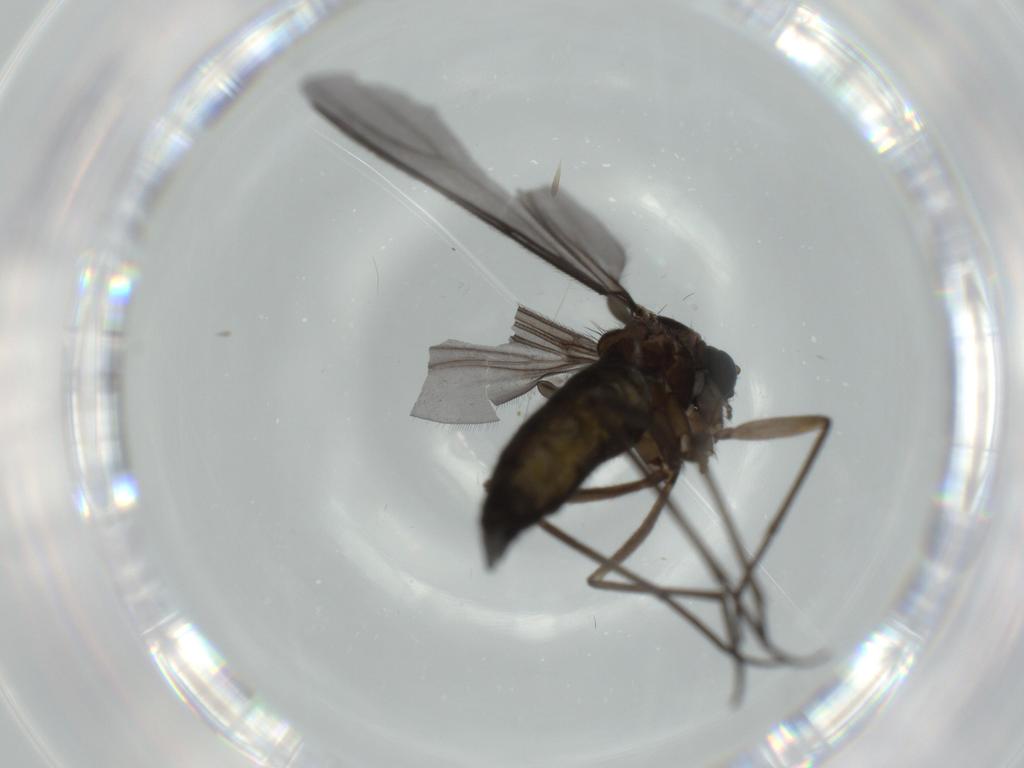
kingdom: Animalia
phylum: Arthropoda
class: Insecta
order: Diptera
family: Sciaridae
